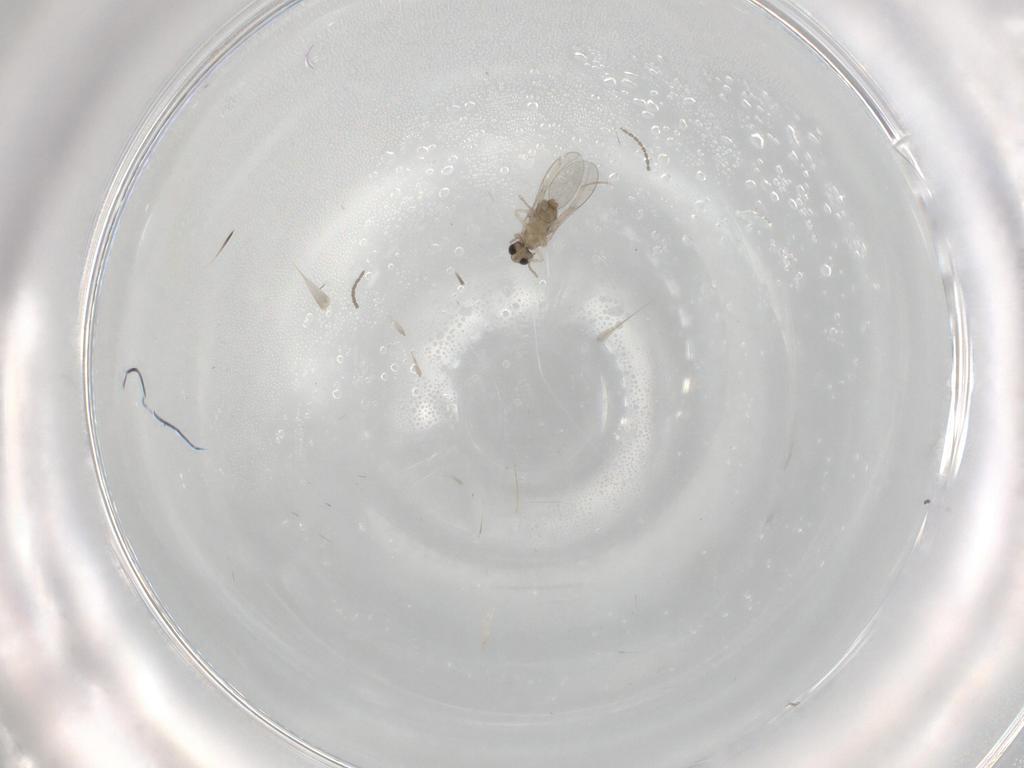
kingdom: Animalia
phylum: Arthropoda
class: Insecta
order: Diptera
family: Cecidomyiidae
